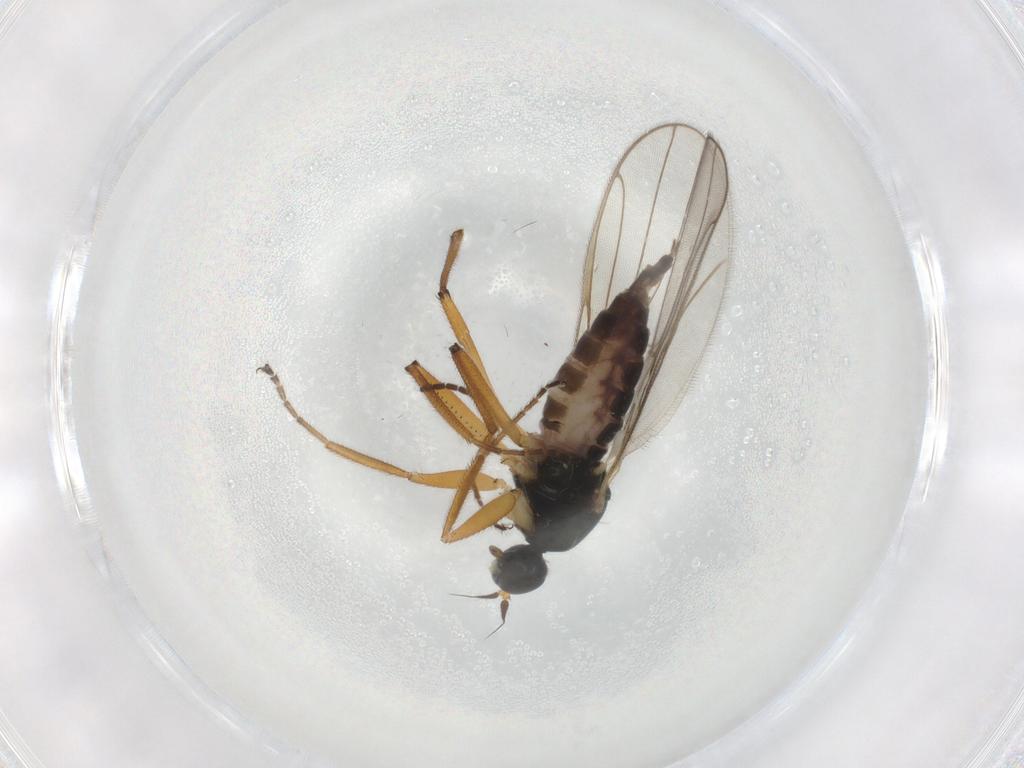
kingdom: Animalia
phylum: Arthropoda
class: Insecta
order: Diptera
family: Hybotidae
